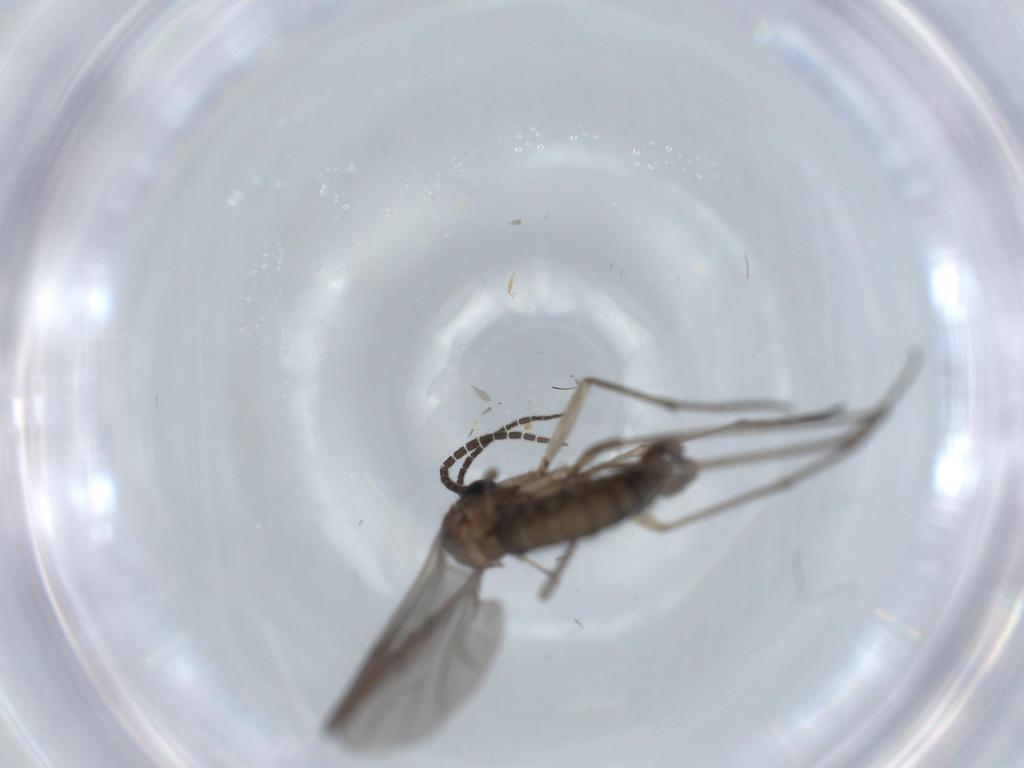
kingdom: Animalia
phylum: Arthropoda
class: Insecta
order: Diptera
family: Sciaridae
